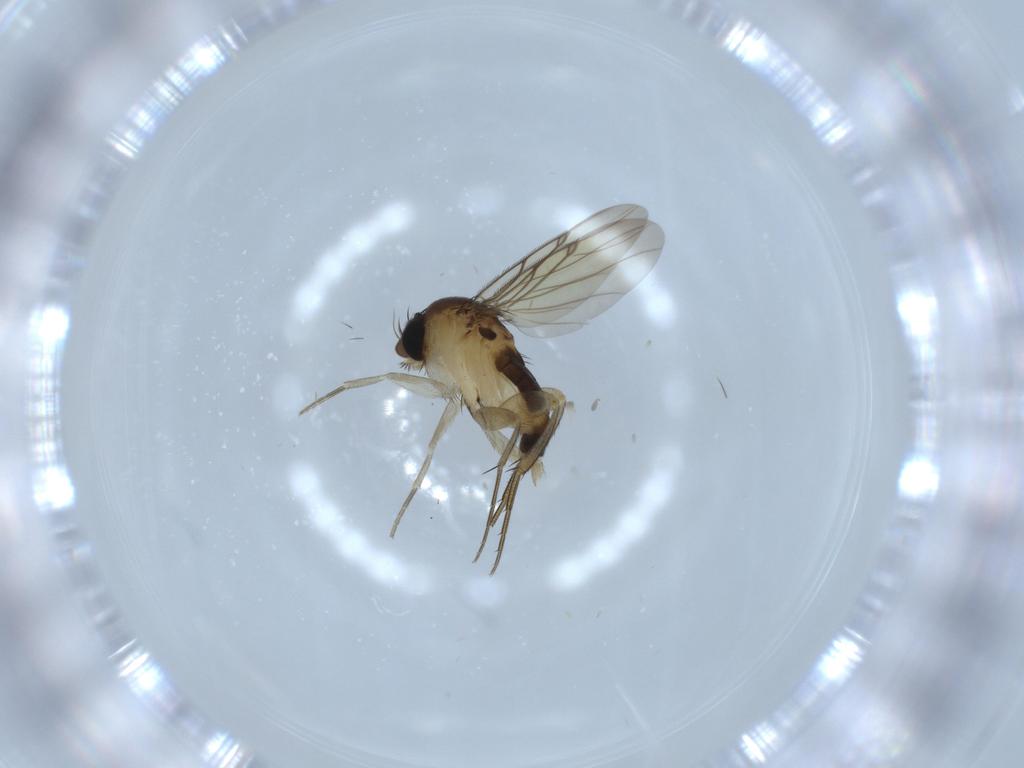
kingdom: Animalia
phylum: Arthropoda
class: Insecta
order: Diptera
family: Phoridae
